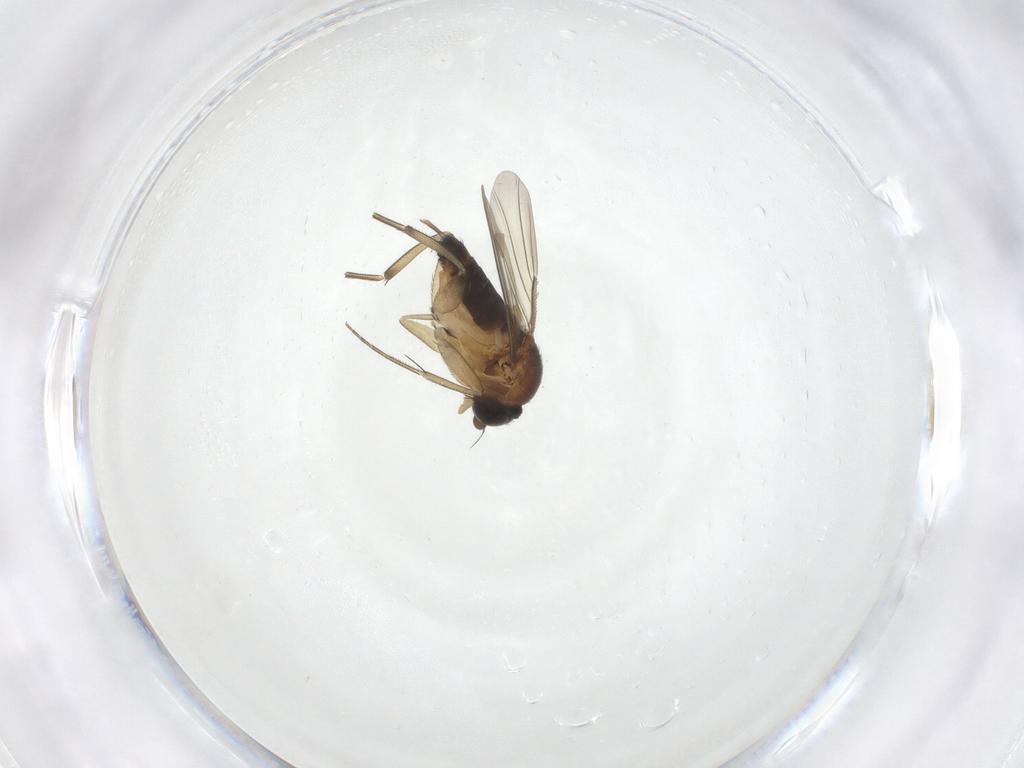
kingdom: Animalia
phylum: Arthropoda
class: Insecta
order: Diptera
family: Phoridae
